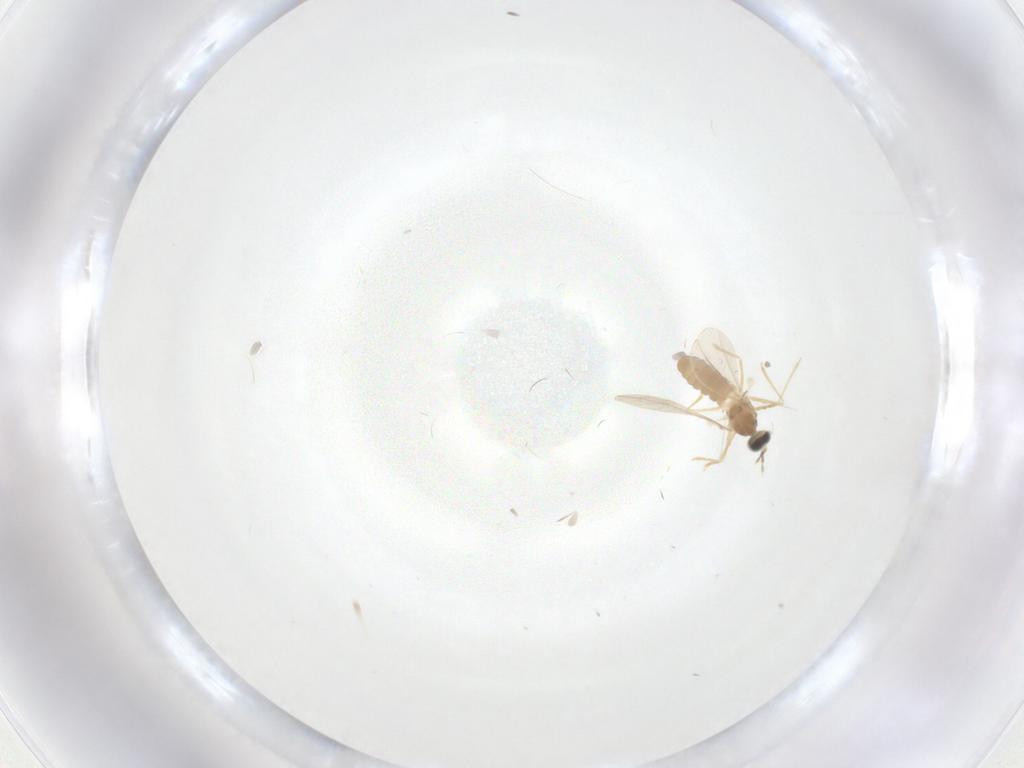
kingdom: Animalia
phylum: Arthropoda
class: Insecta
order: Diptera
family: Cecidomyiidae
